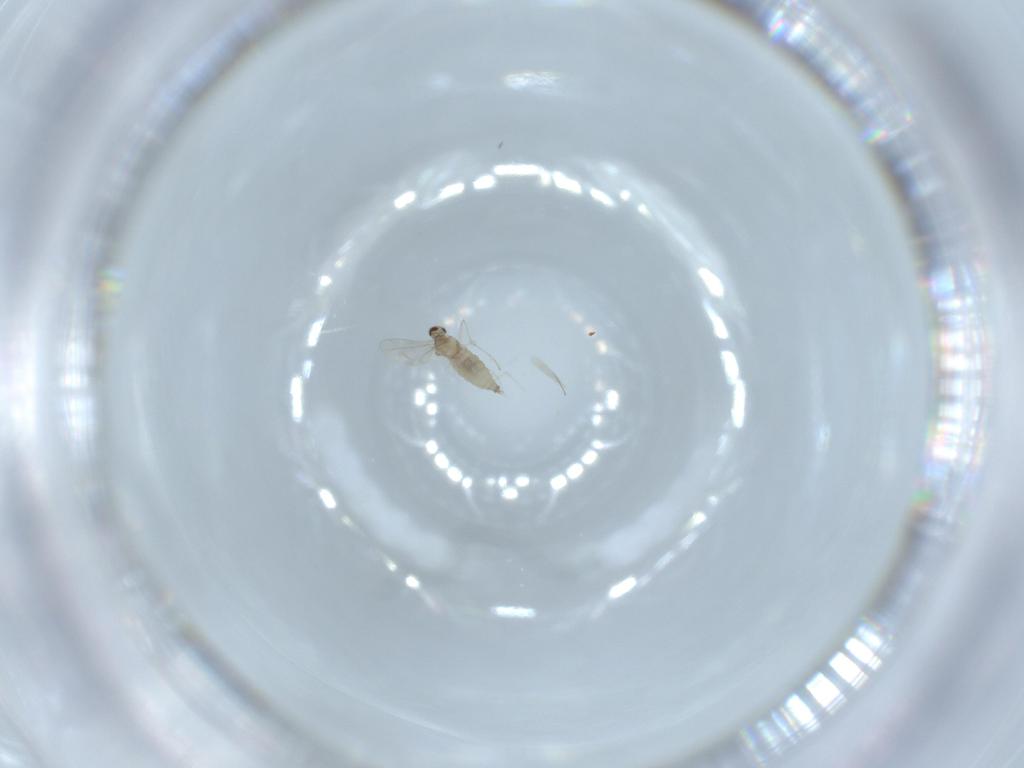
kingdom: Animalia
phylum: Arthropoda
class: Insecta
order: Diptera
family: Cecidomyiidae
